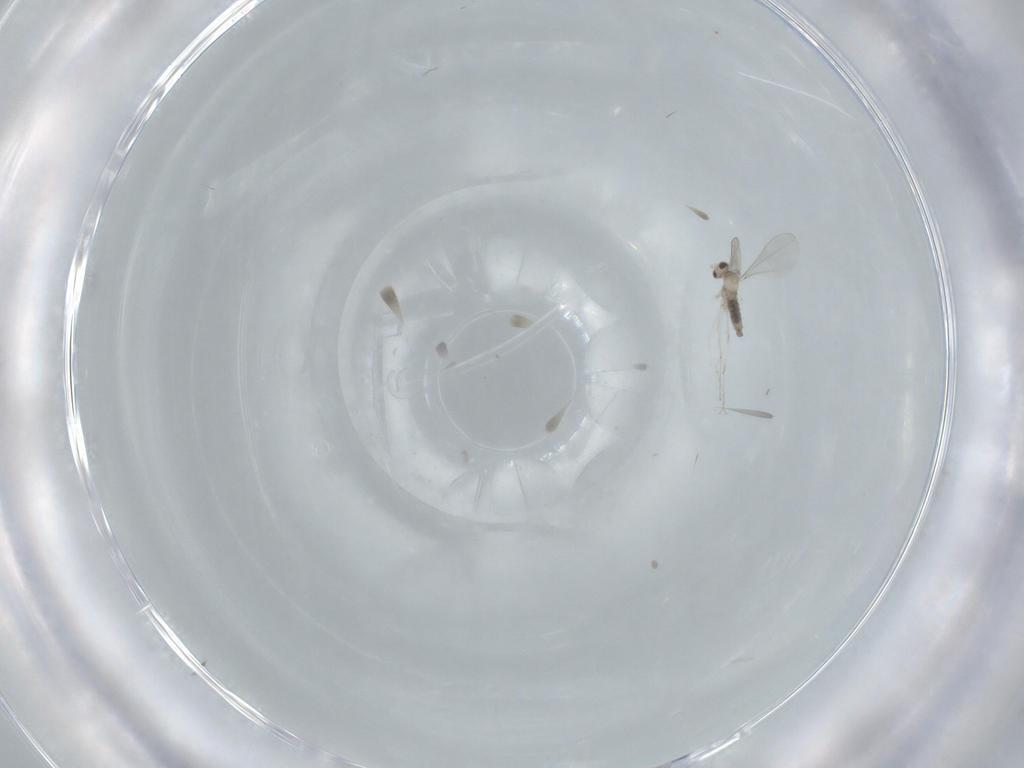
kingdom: Animalia
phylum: Arthropoda
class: Insecta
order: Diptera
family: Cecidomyiidae
